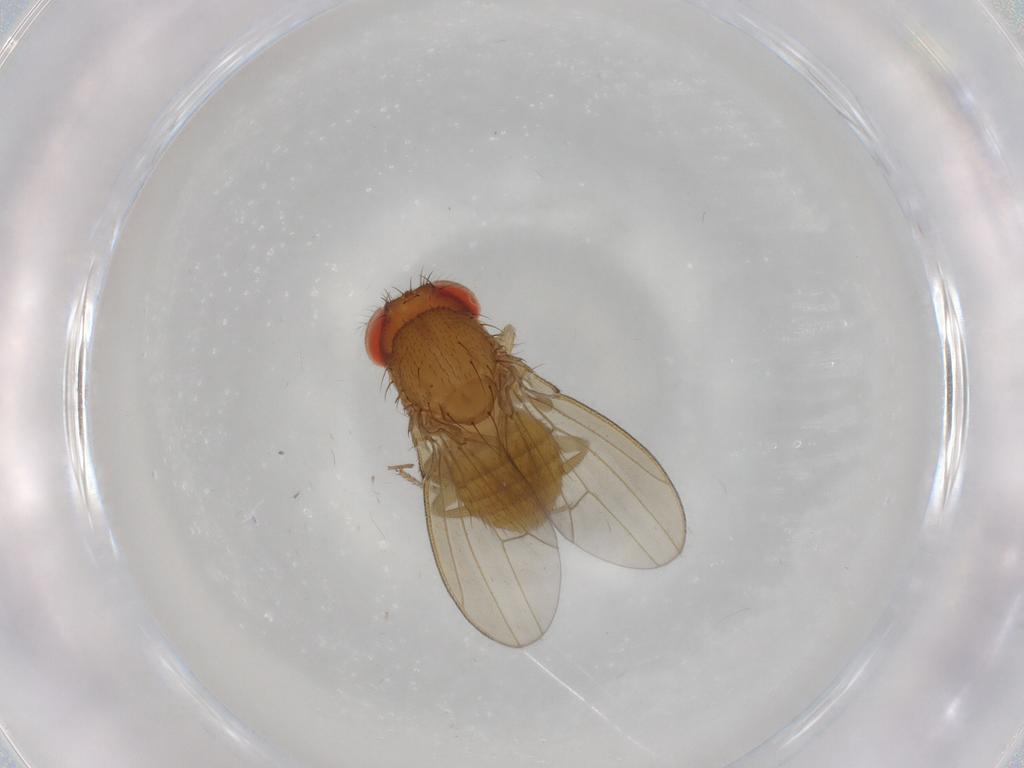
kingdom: Animalia
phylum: Arthropoda
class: Insecta
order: Diptera
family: Drosophilidae
